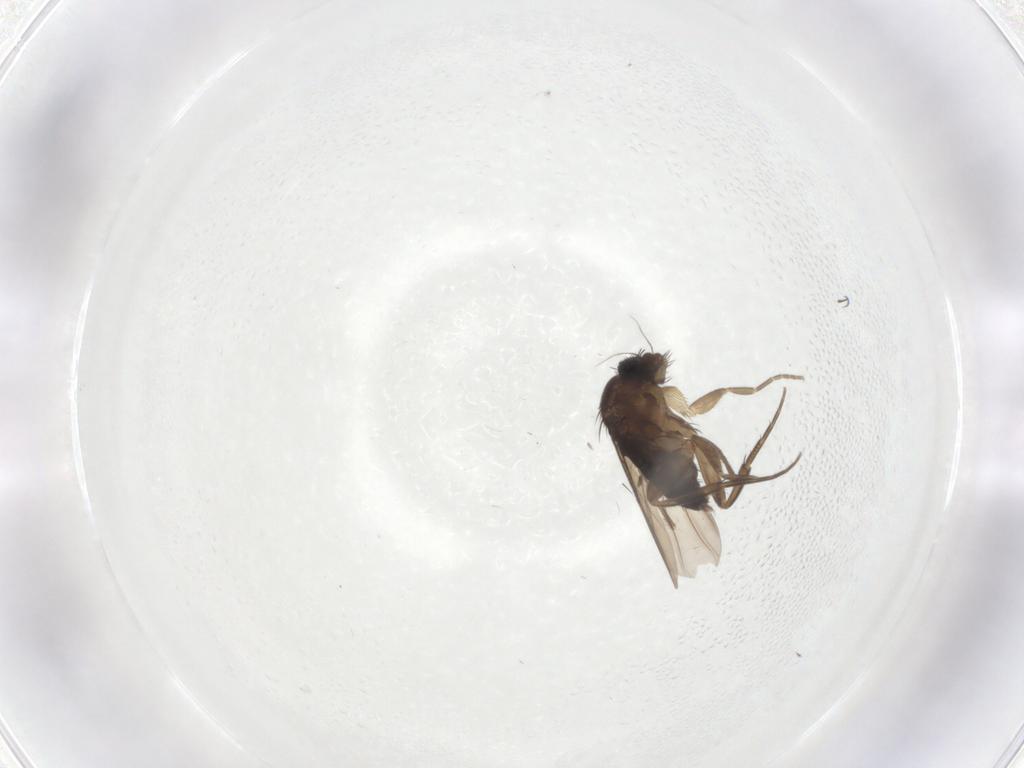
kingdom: Animalia
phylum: Arthropoda
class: Insecta
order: Diptera
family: Phoridae
